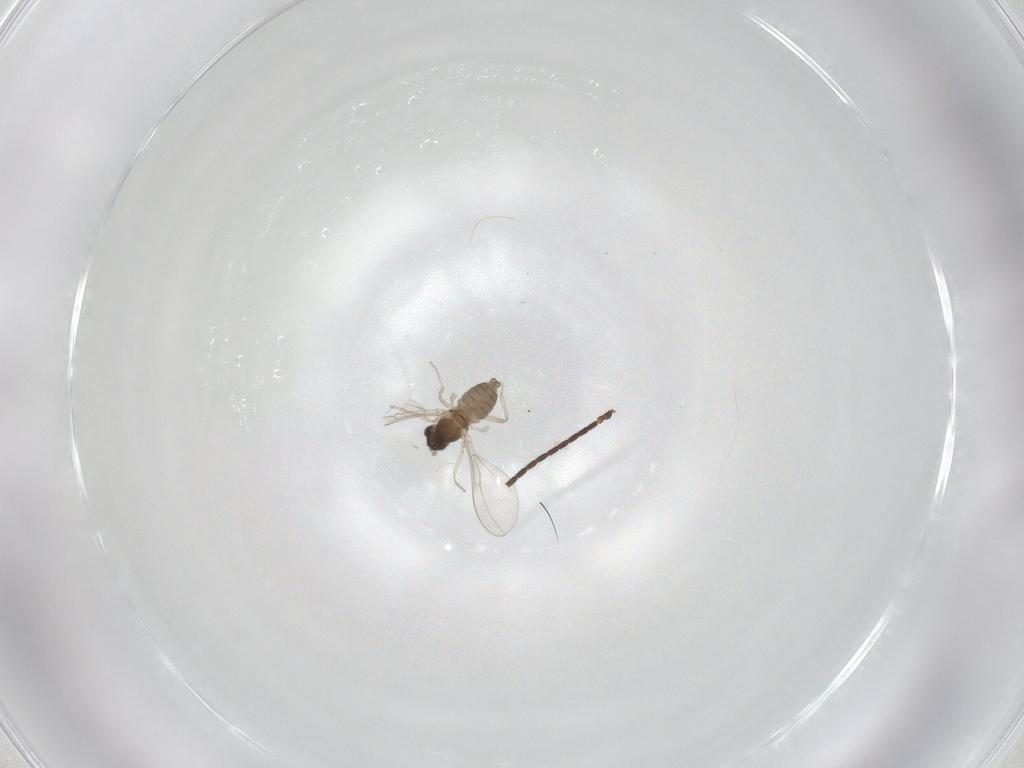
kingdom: Animalia
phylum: Arthropoda
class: Insecta
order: Diptera
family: Cecidomyiidae
